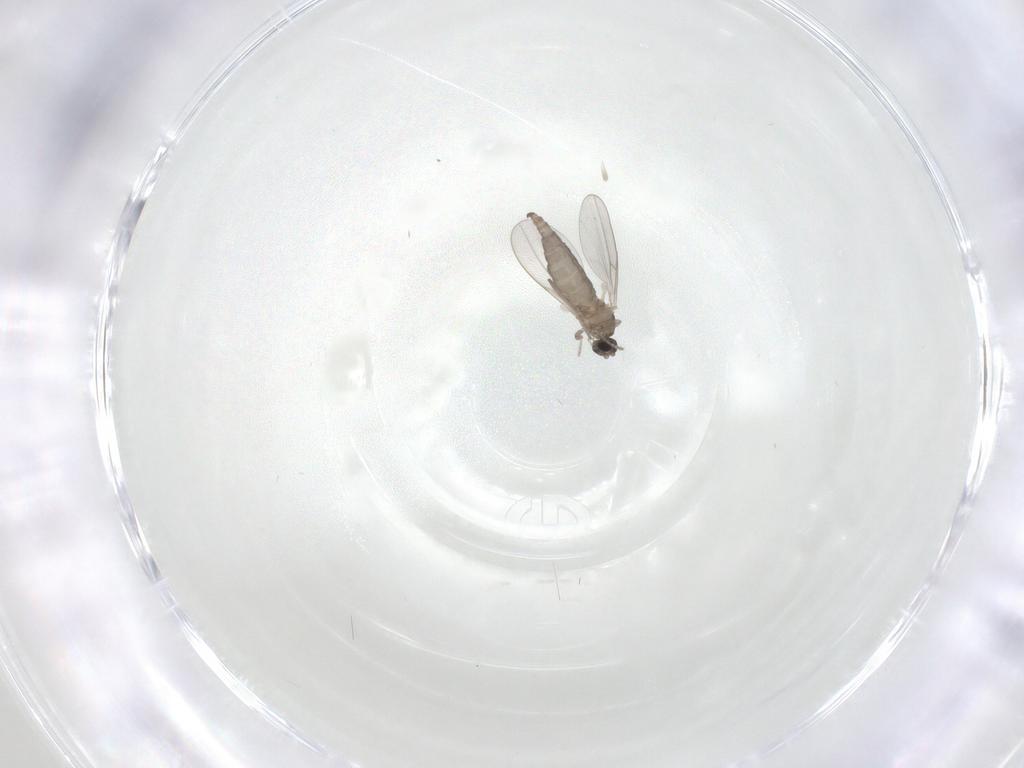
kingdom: Animalia
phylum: Arthropoda
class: Insecta
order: Diptera
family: Cecidomyiidae
